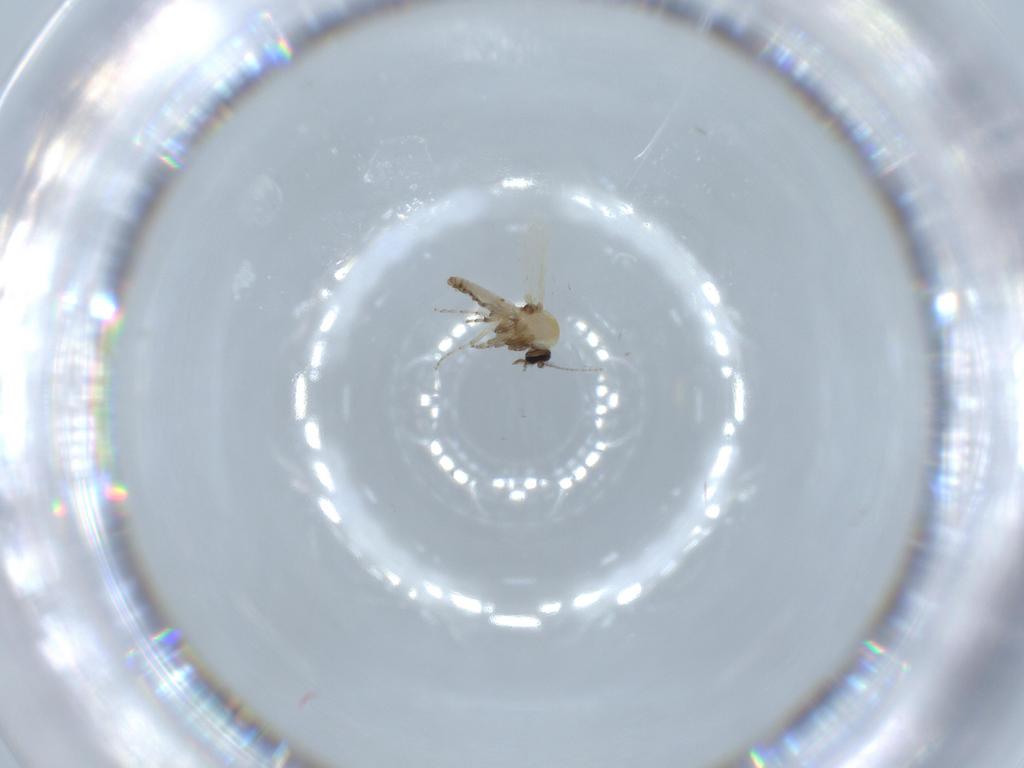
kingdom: Animalia
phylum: Arthropoda
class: Insecta
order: Diptera
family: Ceratopogonidae
